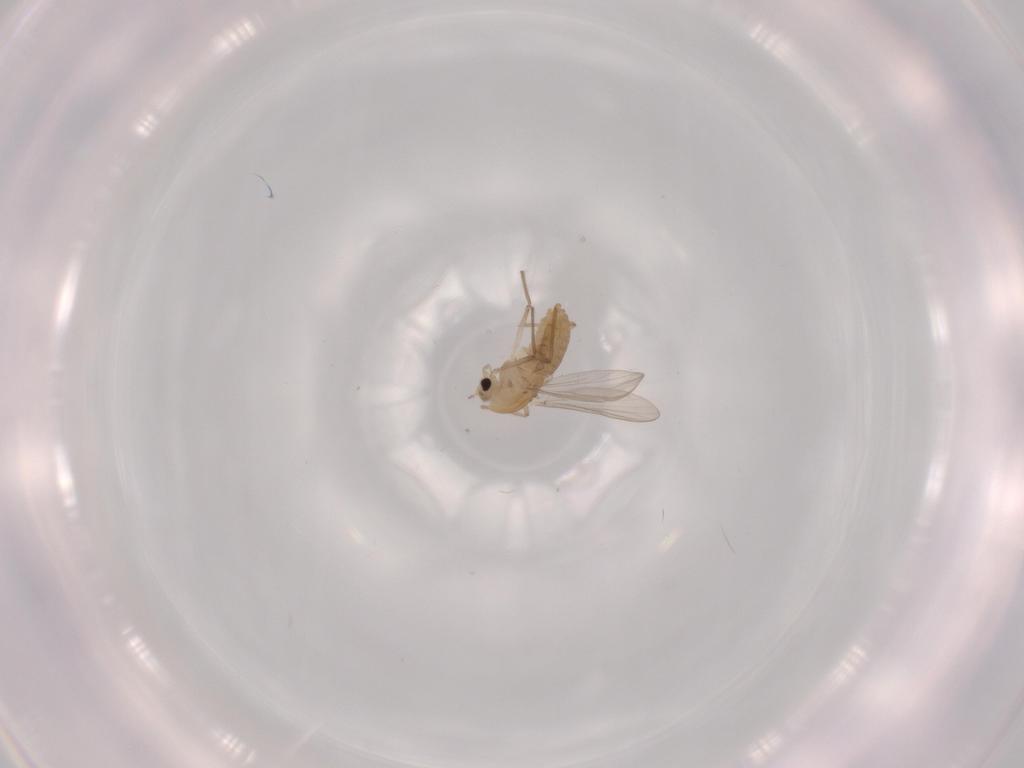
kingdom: Animalia
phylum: Arthropoda
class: Insecta
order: Diptera
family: Chironomidae
